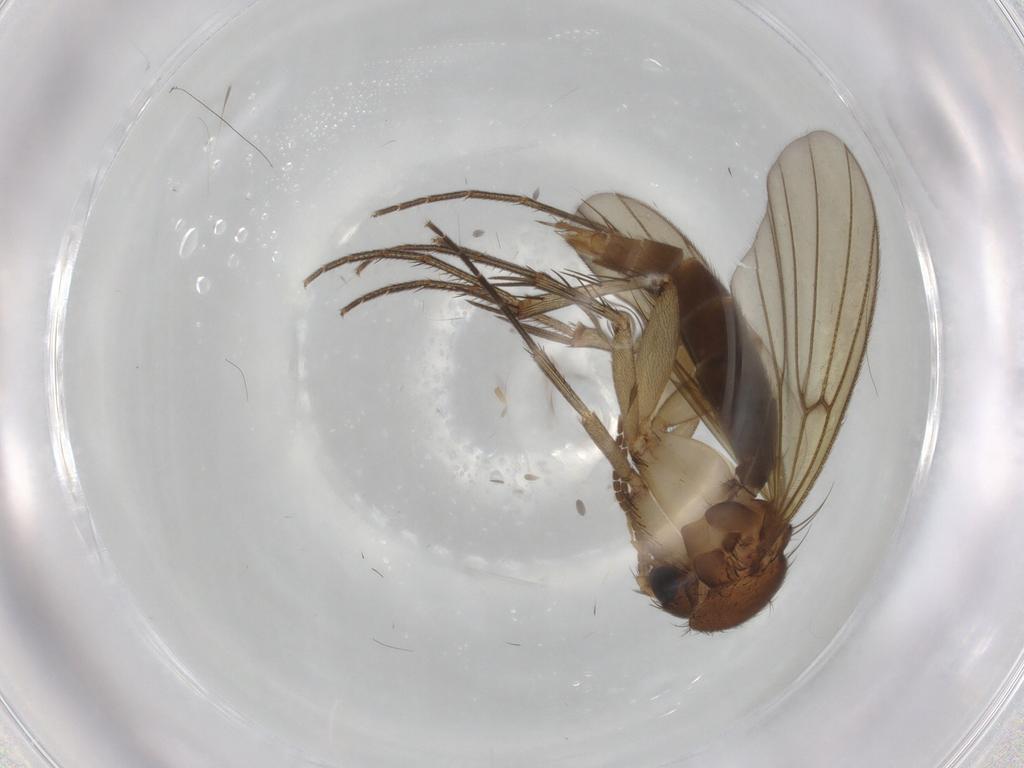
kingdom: Animalia
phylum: Arthropoda
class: Insecta
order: Diptera
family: Mycetophilidae
